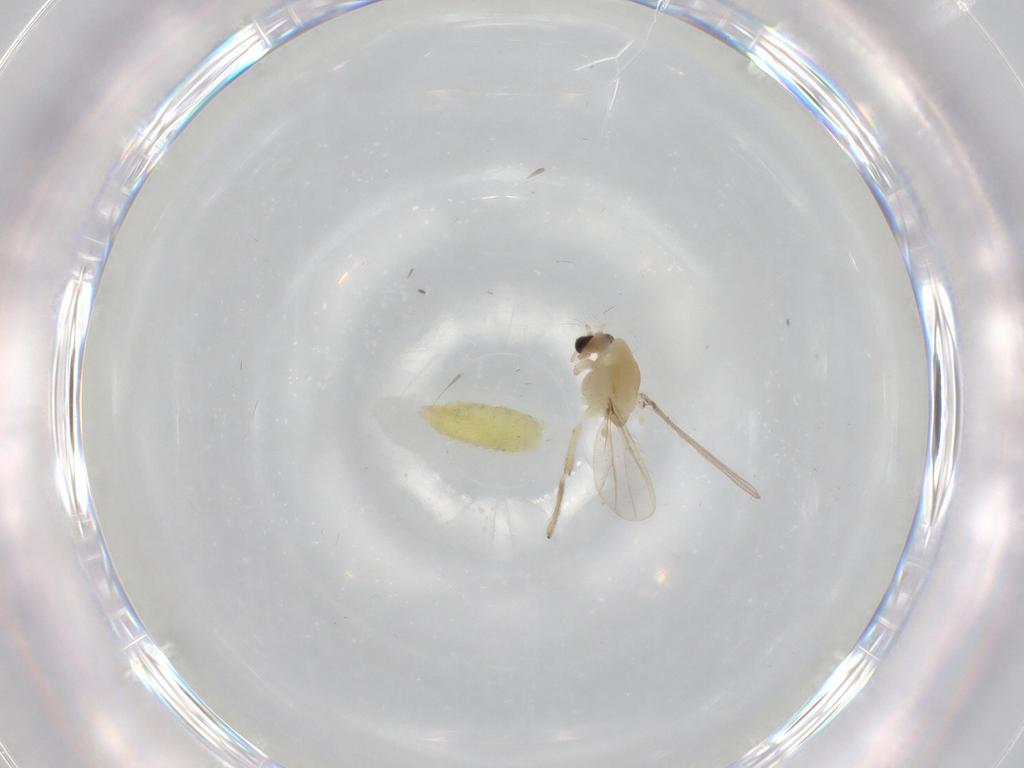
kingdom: Animalia
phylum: Arthropoda
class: Insecta
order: Diptera
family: Chironomidae
